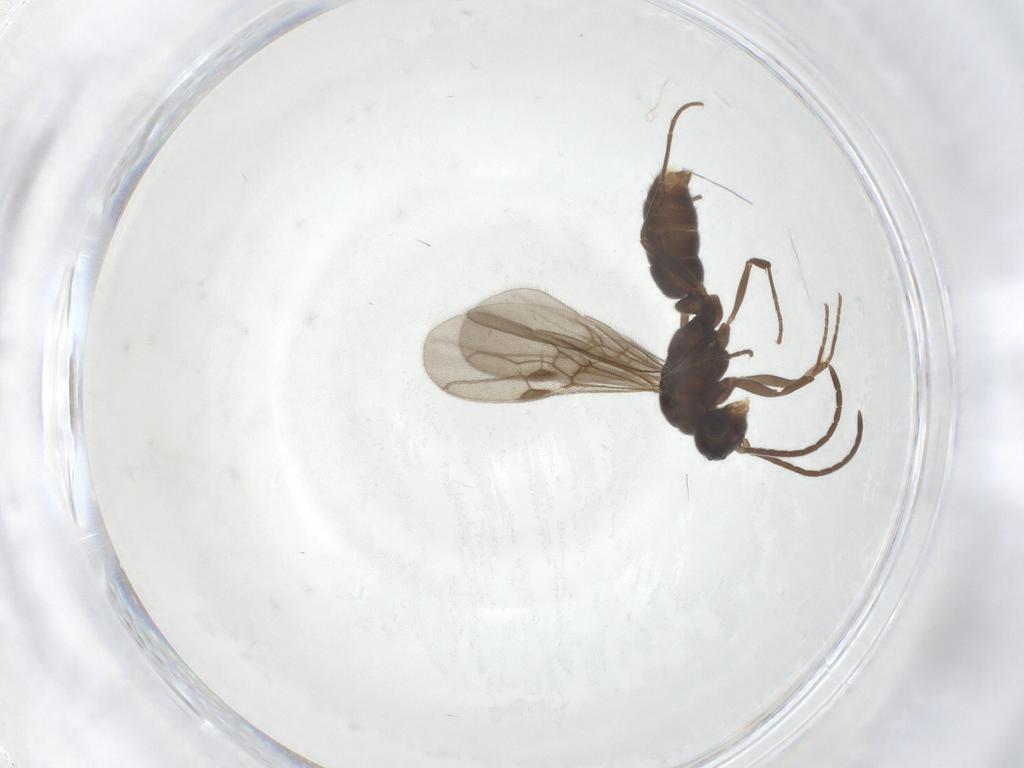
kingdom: Animalia
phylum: Arthropoda
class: Insecta
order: Hymenoptera
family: Formicidae
